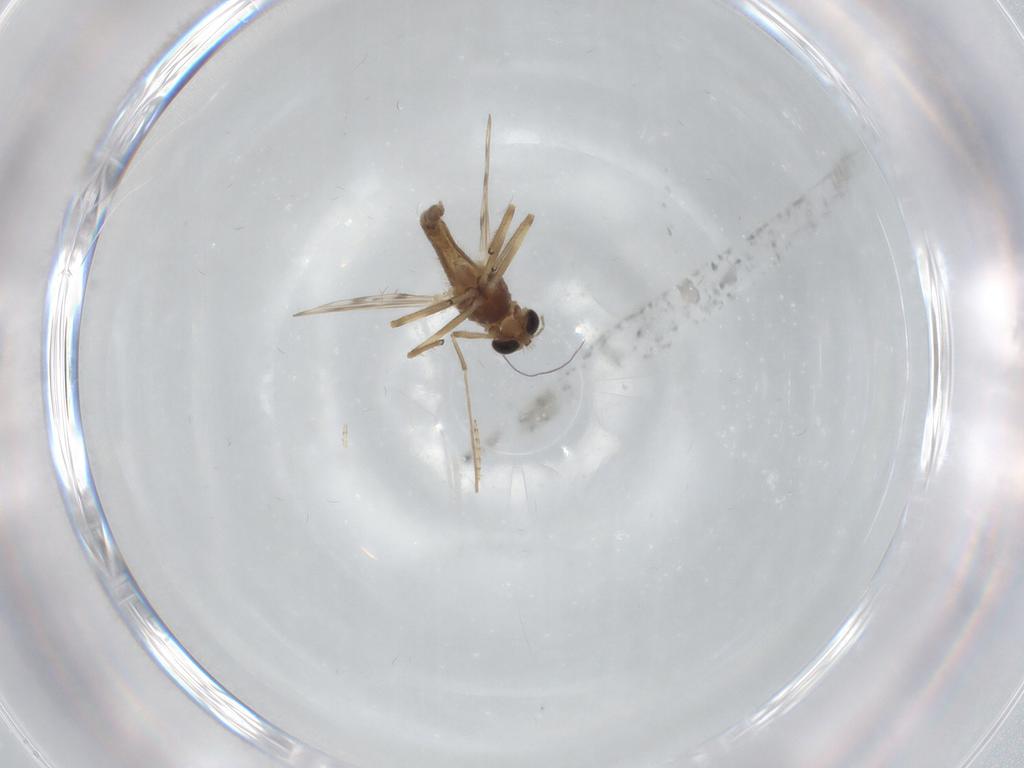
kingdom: Animalia
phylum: Arthropoda
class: Insecta
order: Diptera
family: Chironomidae
